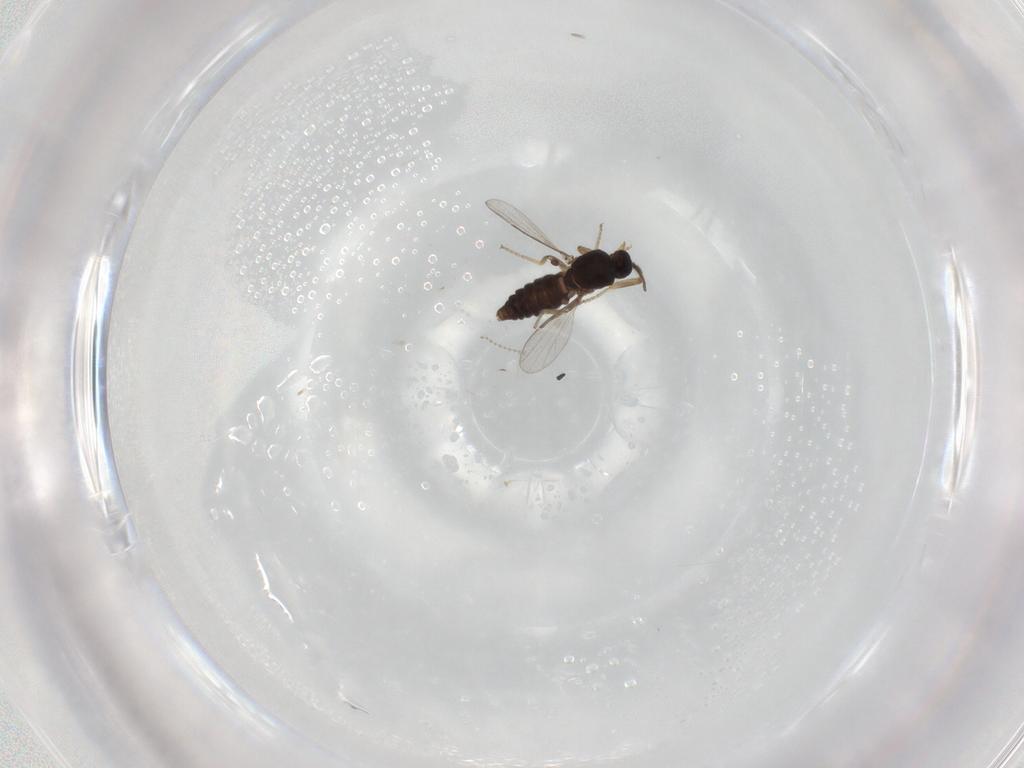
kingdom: Animalia
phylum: Arthropoda
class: Insecta
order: Diptera
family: Ceratopogonidae
